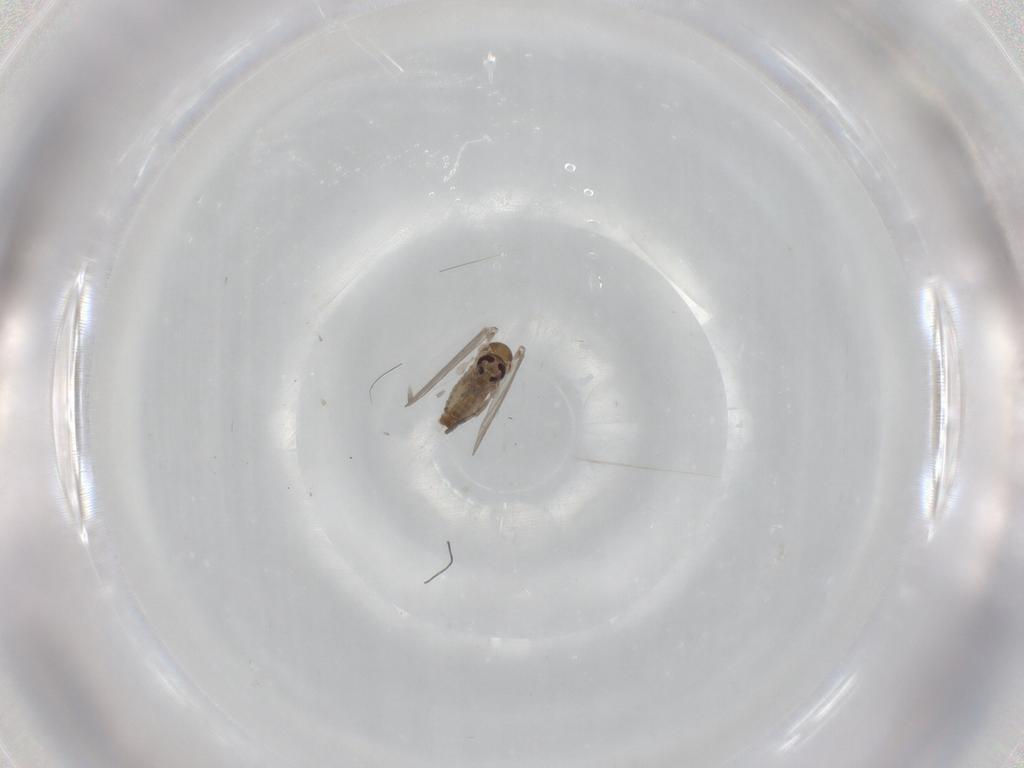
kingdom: Animalia
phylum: Arthropoda
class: Insecta
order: Diptera
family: Psychodidae
